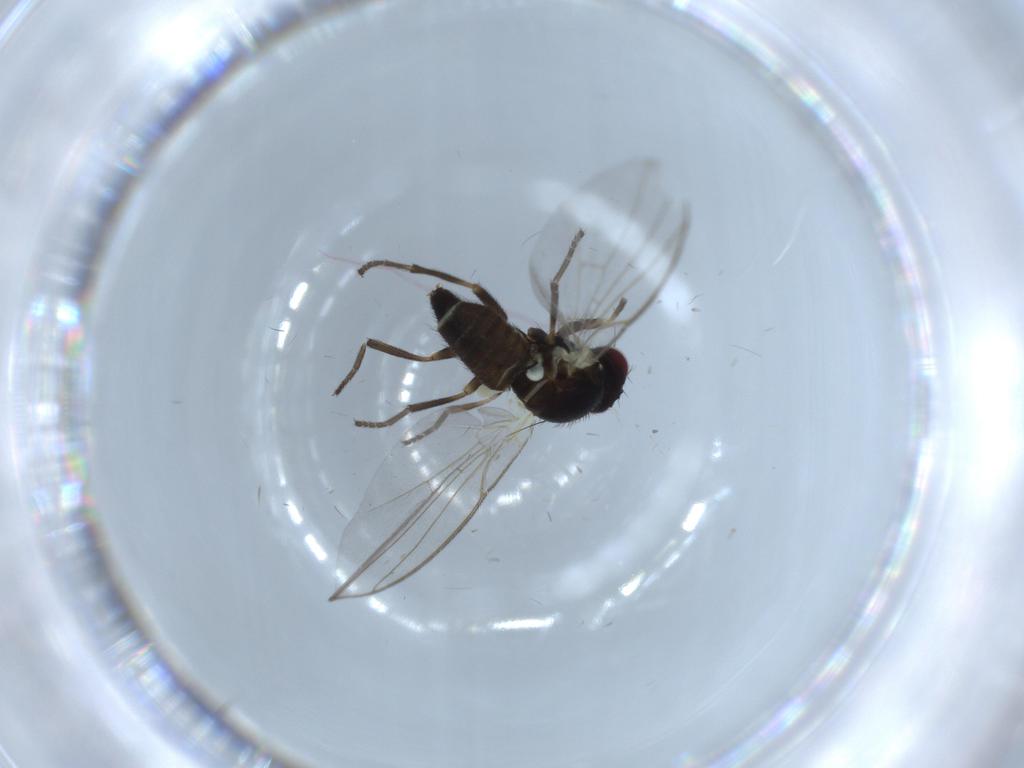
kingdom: Animalia
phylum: Arthropoda
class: Insecta
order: Diptera
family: Scathophagidae
